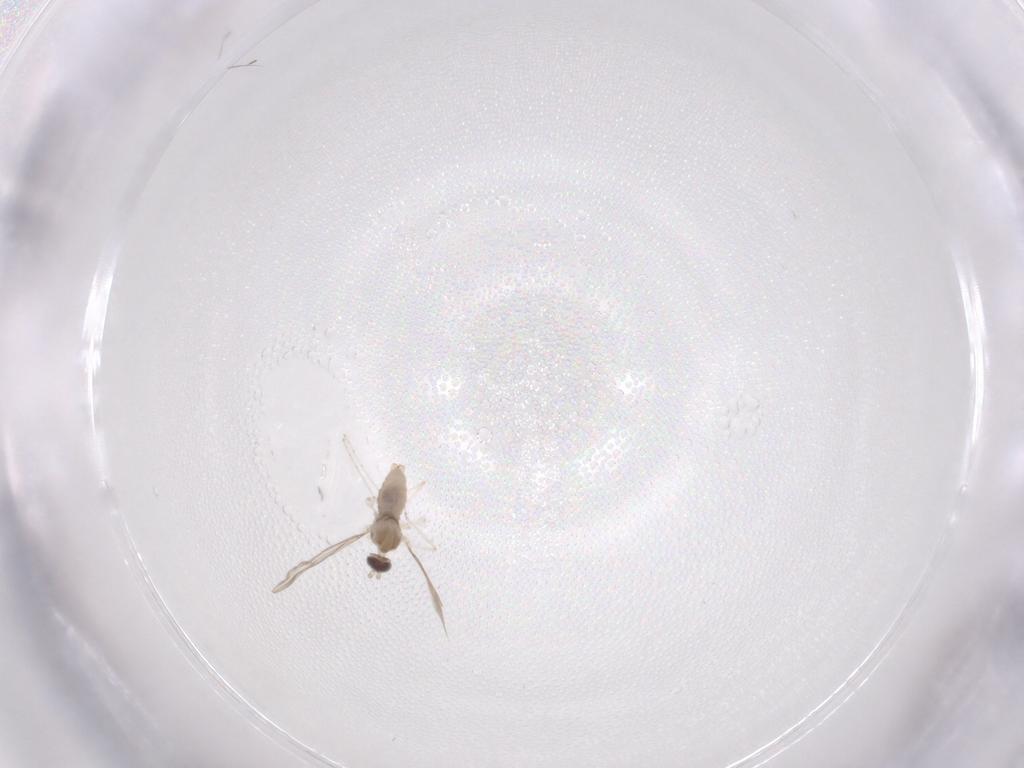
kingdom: Animalia
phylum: Arthropoda
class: Insecta
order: Diptera
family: Cecidomyiidae
